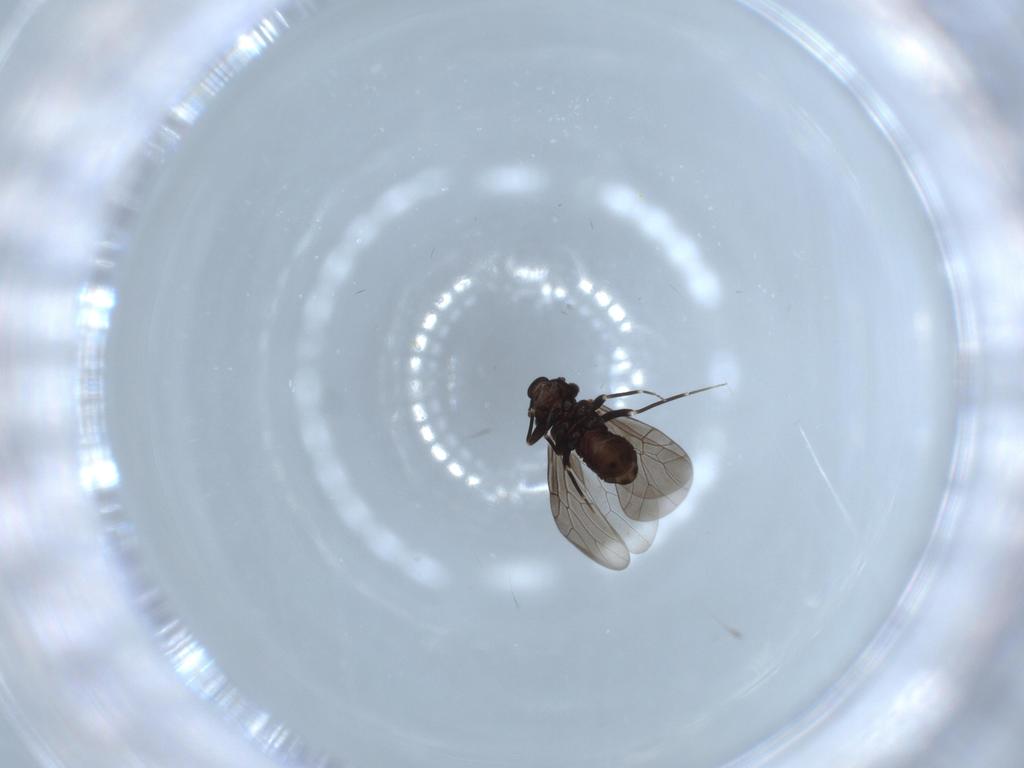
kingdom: Animalia
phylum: Arthropoda
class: Insecta
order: Psocodea
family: Lepidopsocidae
